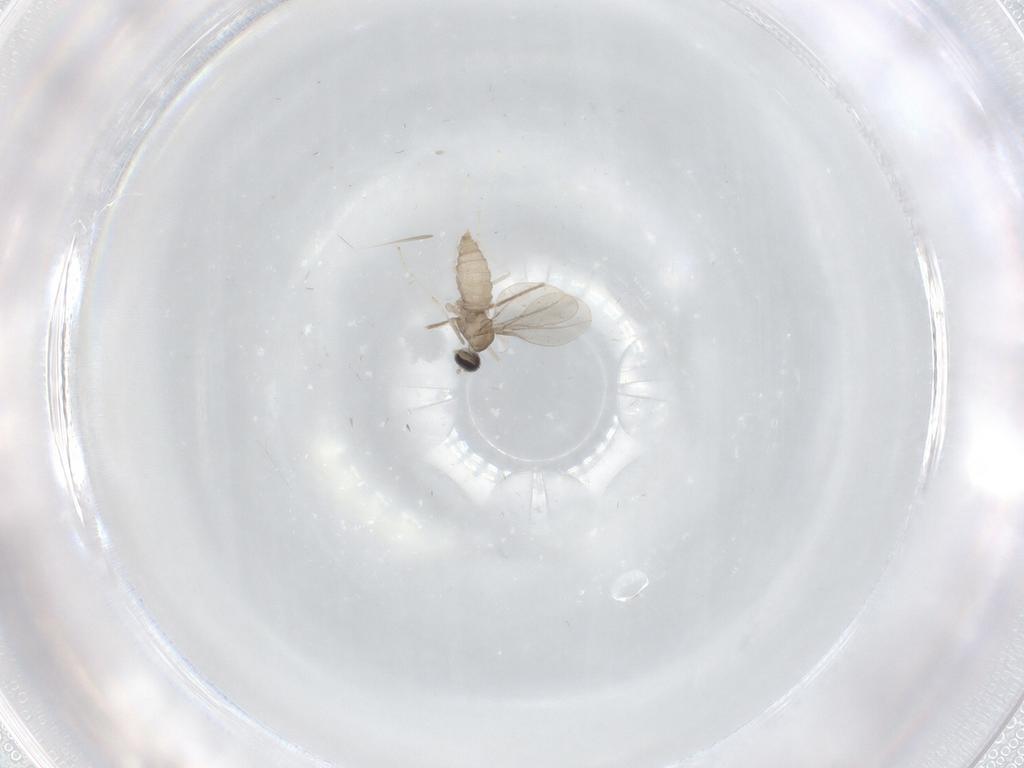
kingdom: Animalia
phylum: Arthropoda
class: Insecta
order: Diptera
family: Cecidomyiidae
